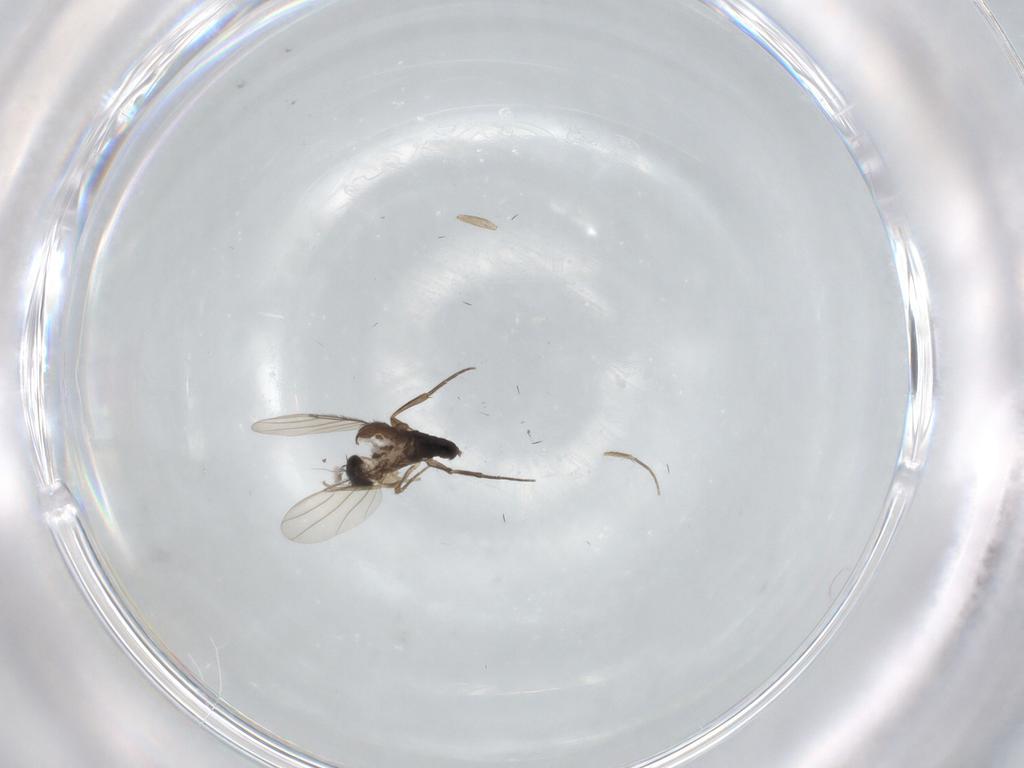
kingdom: Animalia
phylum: Arthropoda
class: Insecta
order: Diptera
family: Phoridae
